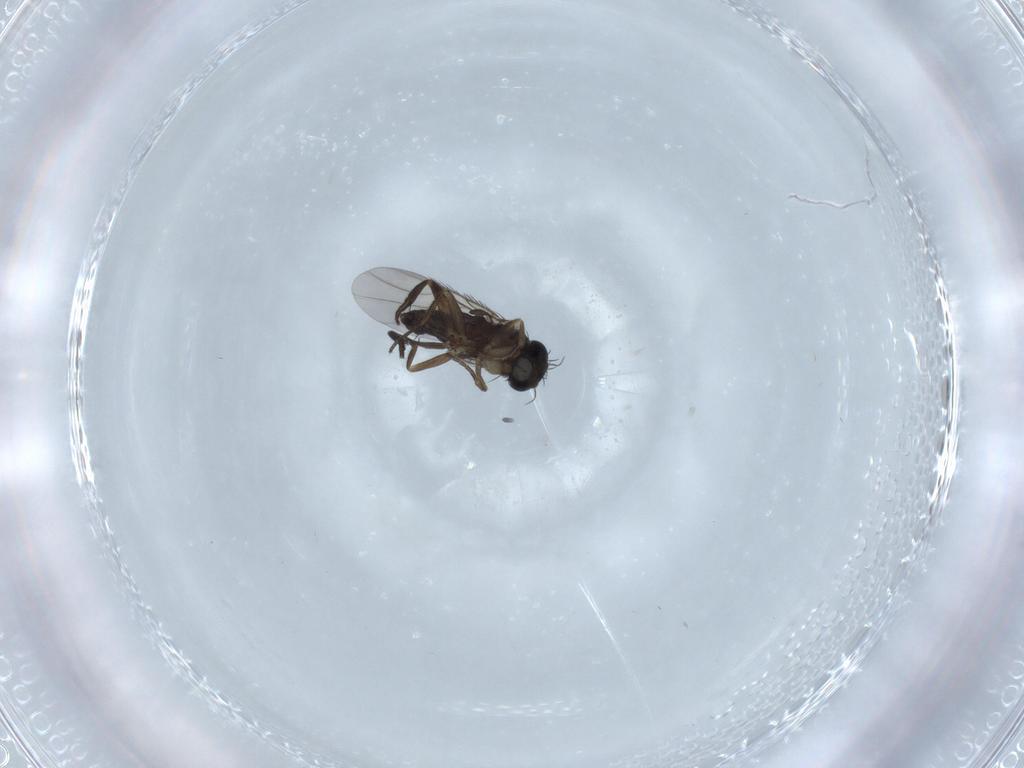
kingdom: Animalia
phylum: Arthropoda
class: Insecta
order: Diptera
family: Phoridae
